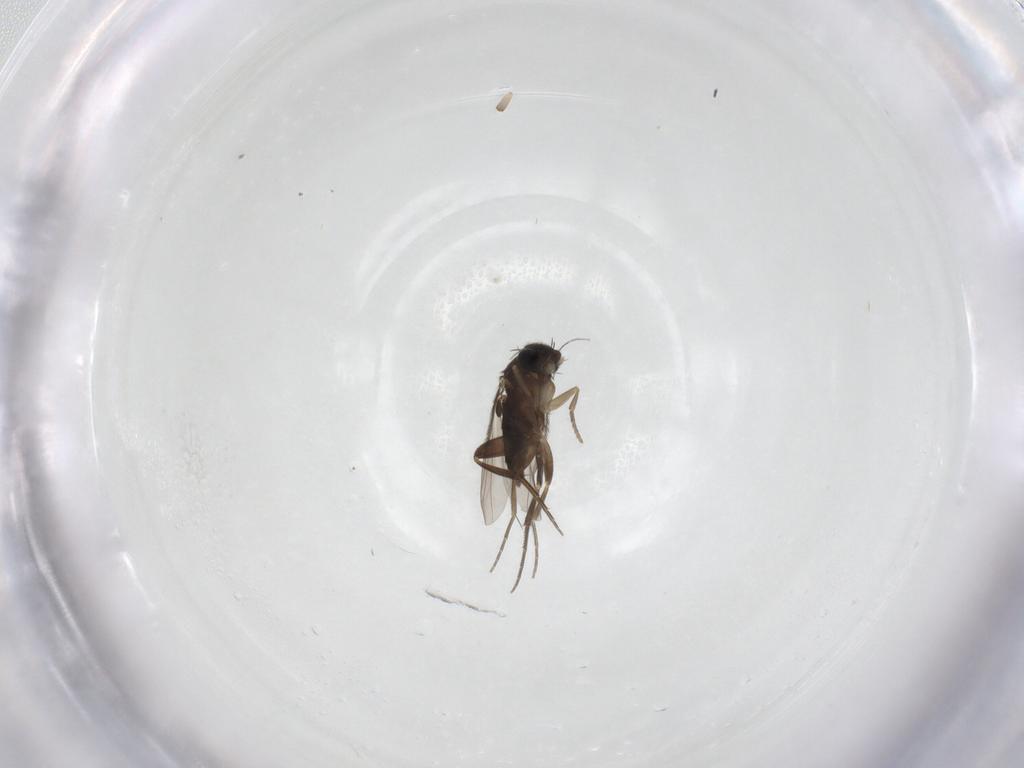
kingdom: Animalia
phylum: Arthropoda
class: Insecta
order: Diptera
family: Phoridae
